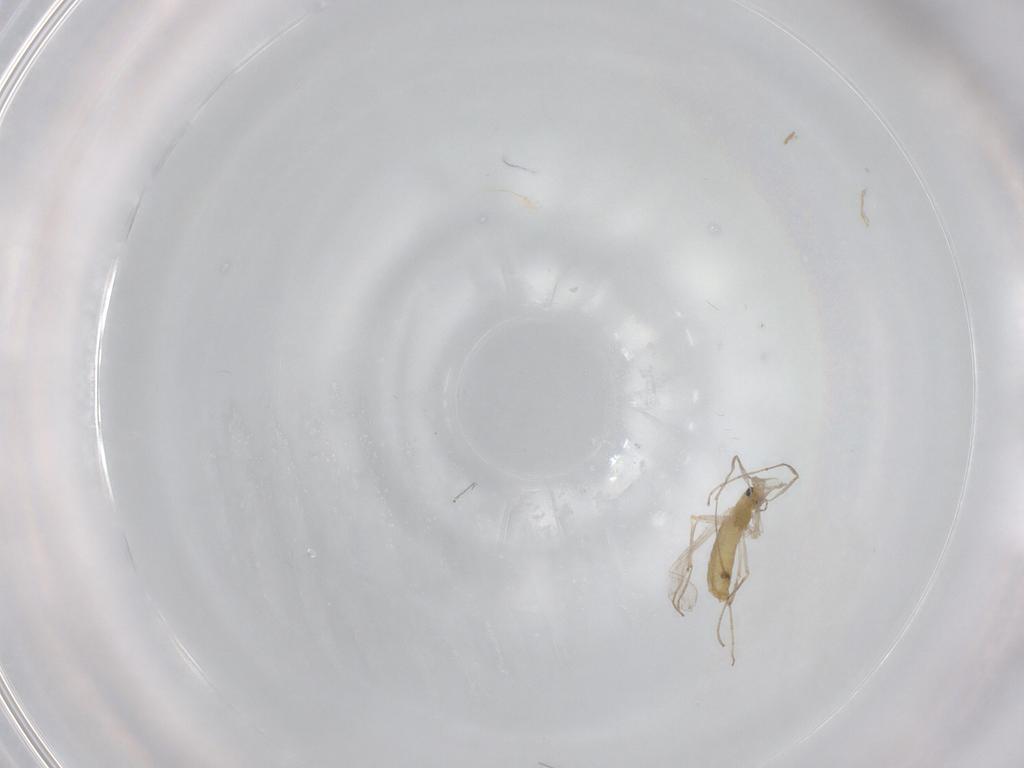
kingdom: Animalia
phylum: Arthropoda
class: Insecta
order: Diptera
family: Chironomidae
